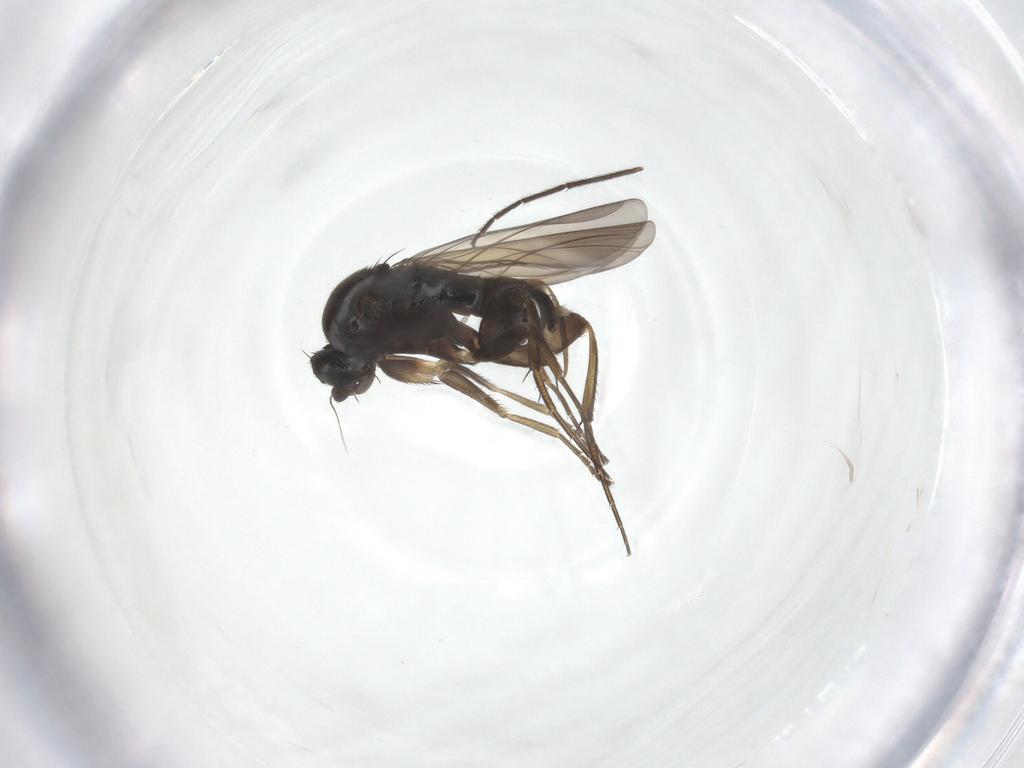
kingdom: Animalia
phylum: Arthropoda
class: Insecta
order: Diptera
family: Phoridae
